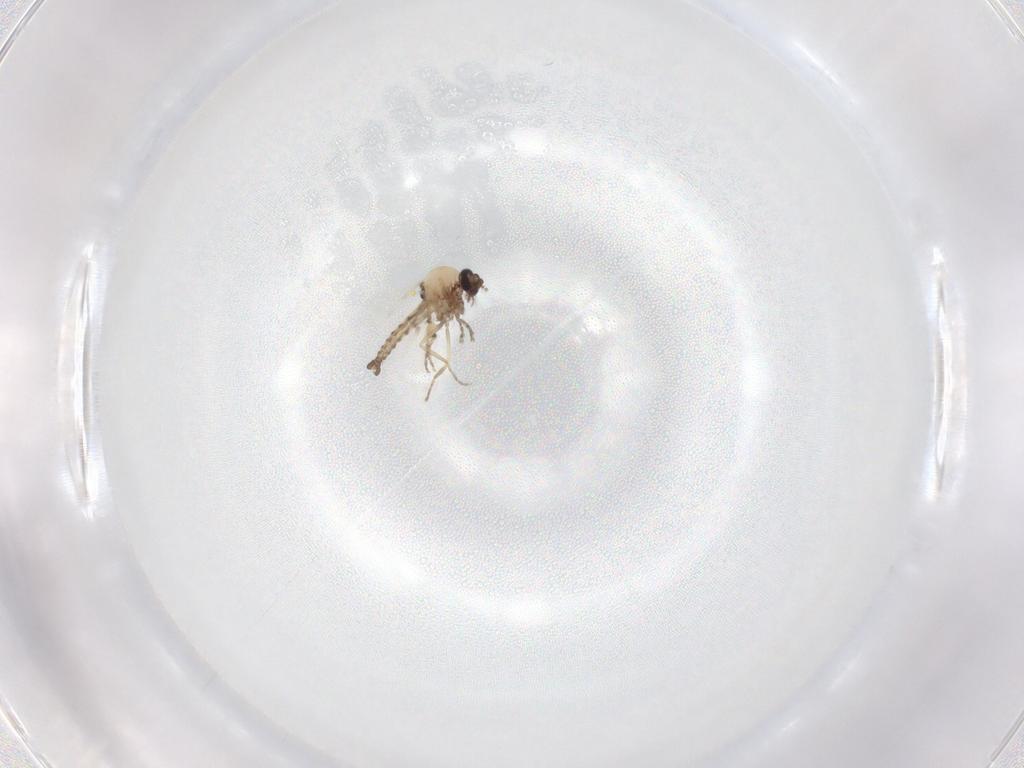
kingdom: Animalia
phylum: Arthropoda
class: Insecta
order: Diptera
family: Ceratopogonidae
